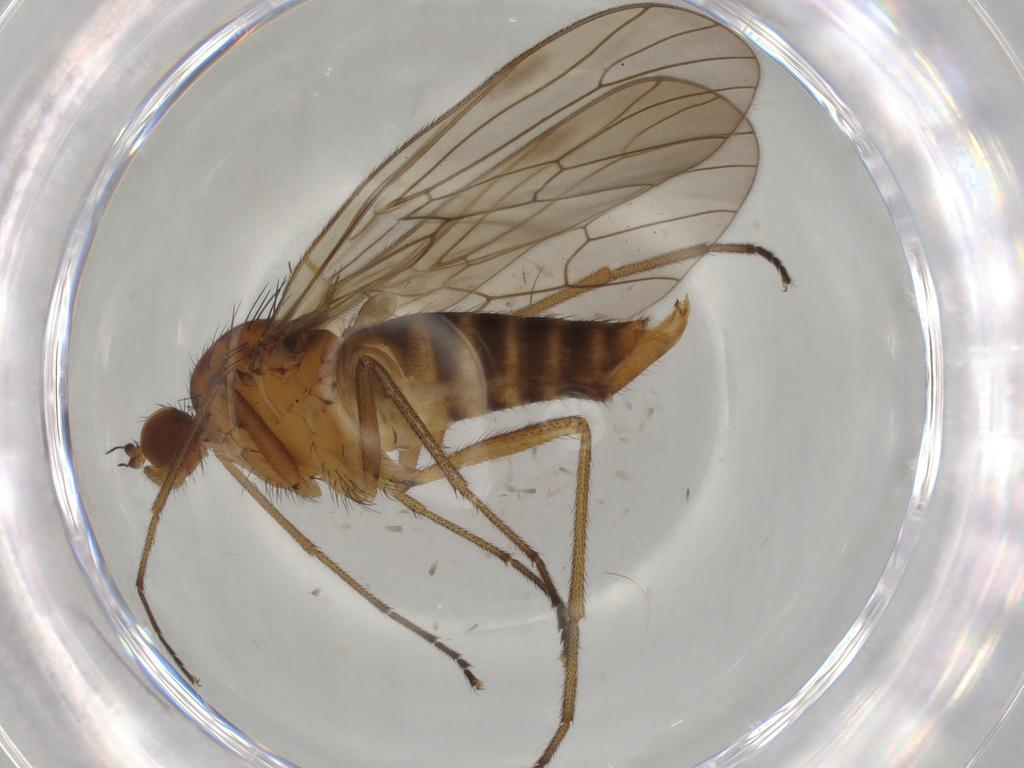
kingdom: Animalia
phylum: Arthropoda
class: Insecta
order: Diptera
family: Brachystomatidae
